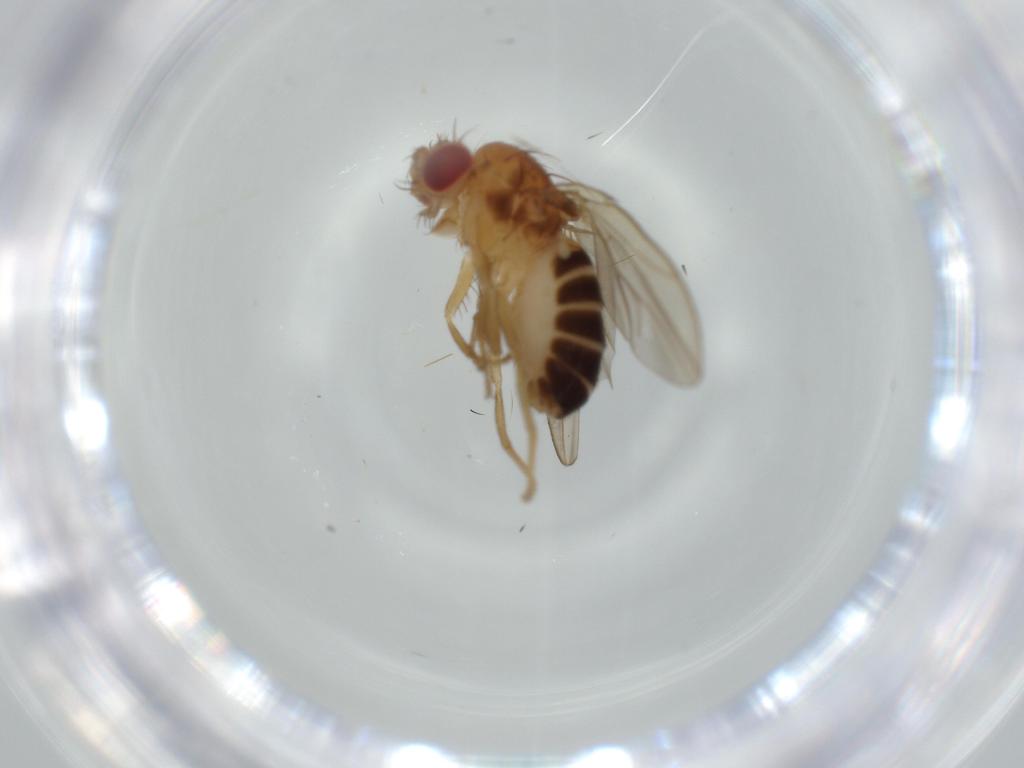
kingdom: Animalia
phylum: Arthropoda
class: Insecta
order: Diptera
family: Drosophilidae
